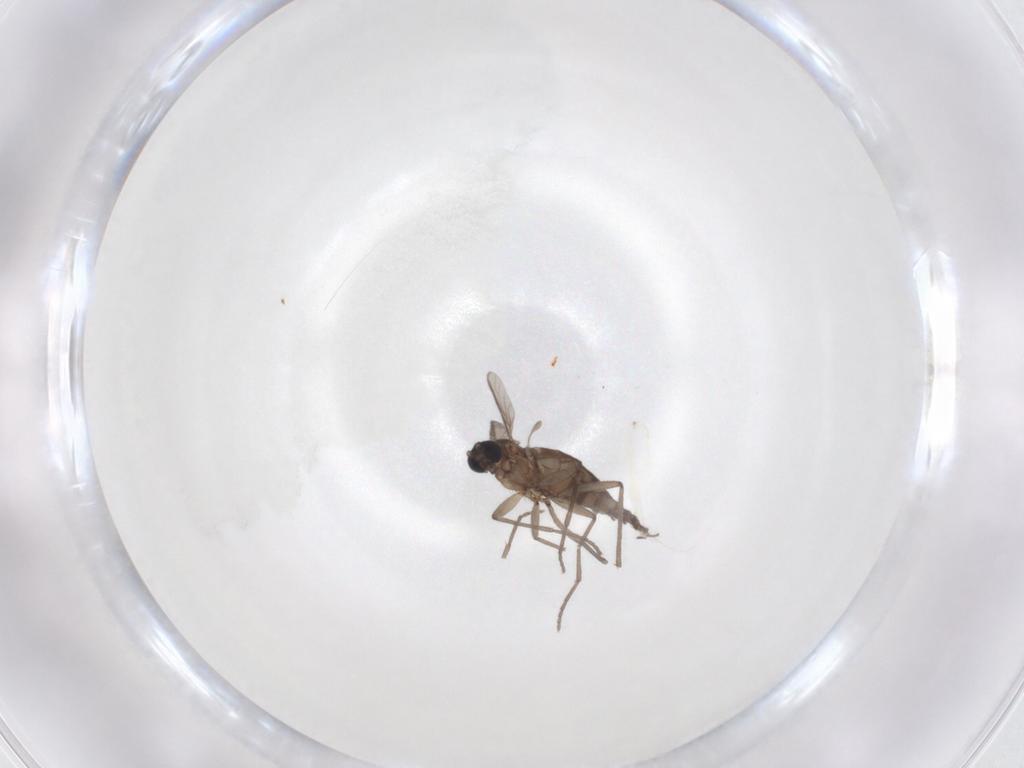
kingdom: Animalia
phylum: Arthropoda
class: Insecta
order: Diptera
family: Sciaridae
